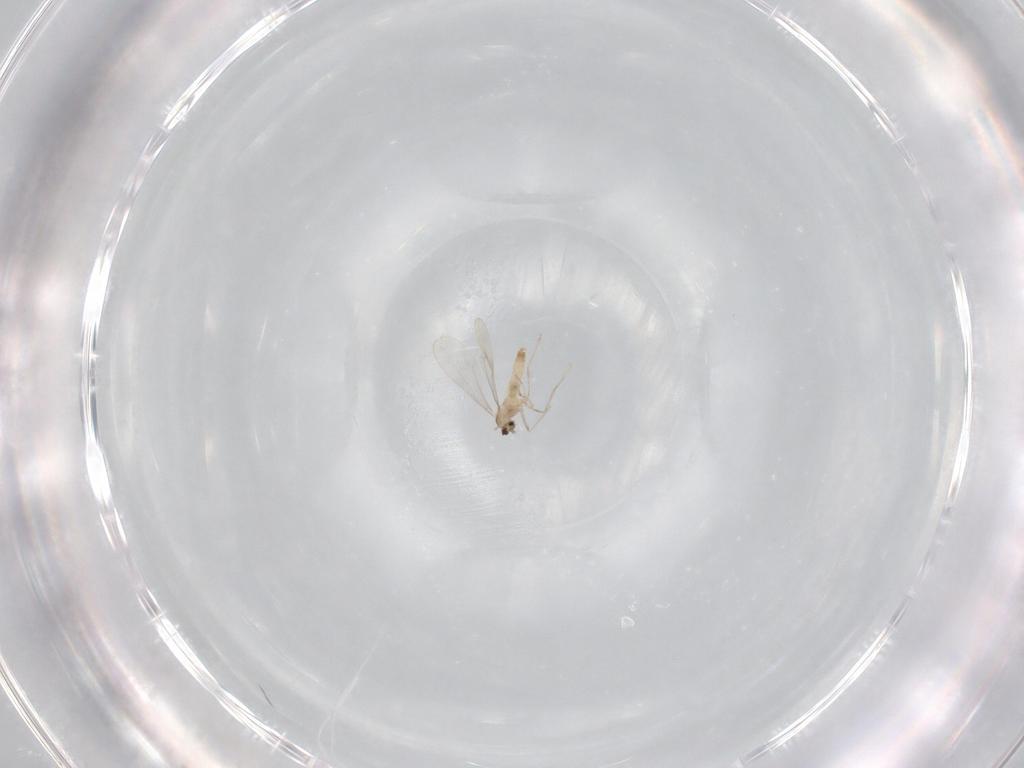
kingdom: Animalia
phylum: Arthropoda
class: Insecta
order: Diptera
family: Cecidomyiidae
